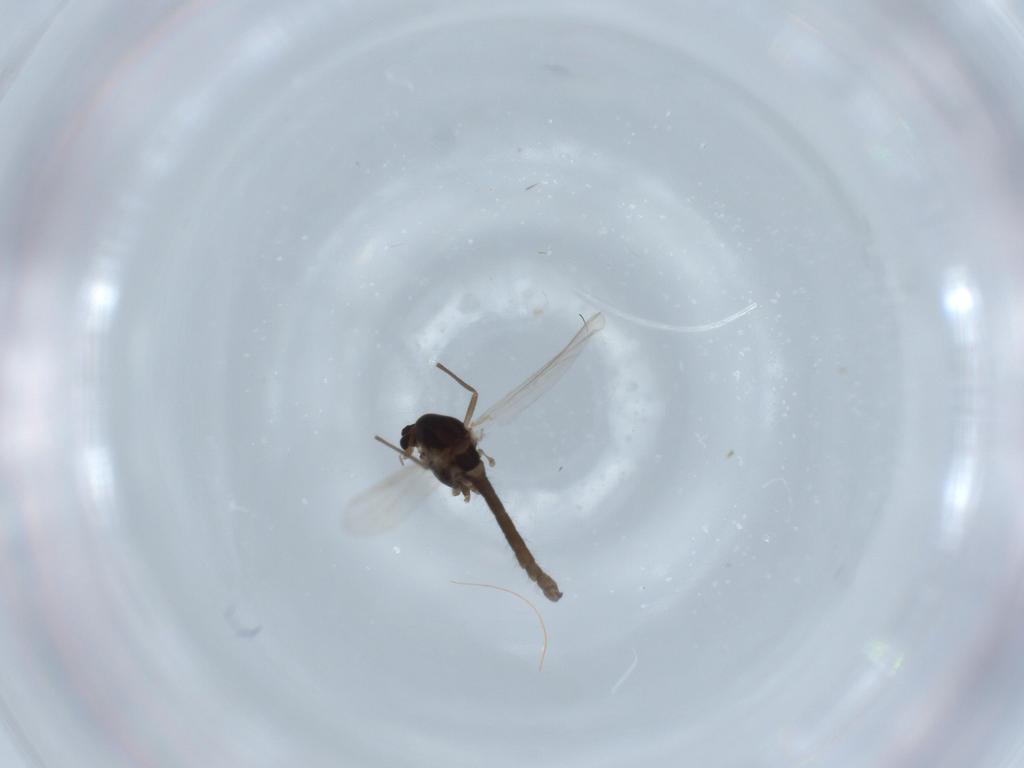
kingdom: Animalia
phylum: Arthropoda
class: Insecta
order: Diptera
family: Chironomidae
